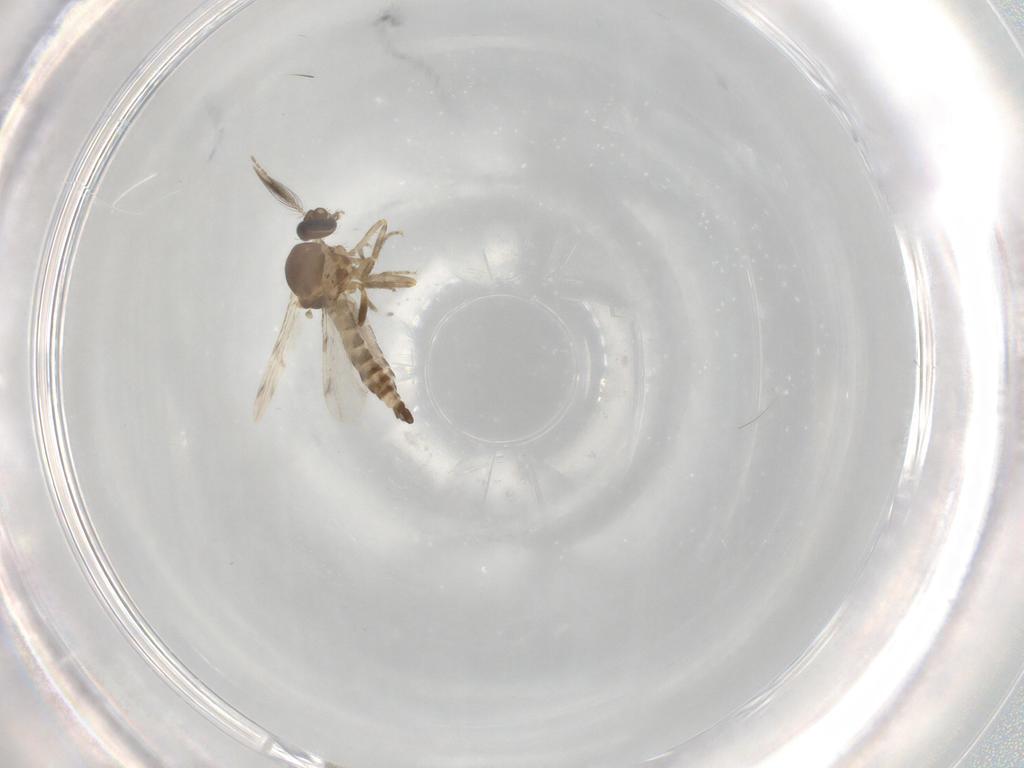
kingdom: Animalia
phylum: Arthropoda
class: Insecta
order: Diptera
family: Ceratopogonidae
